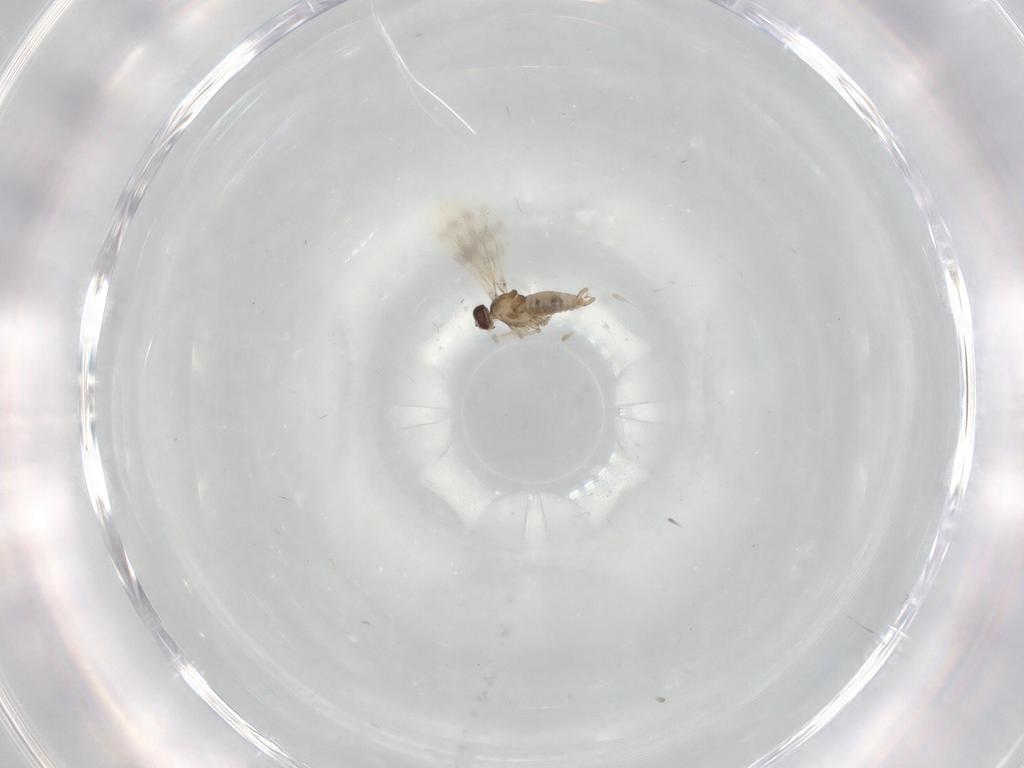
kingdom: Animalia
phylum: Arthropoda
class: Insecta
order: Diptera
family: Cecidomyiidae
